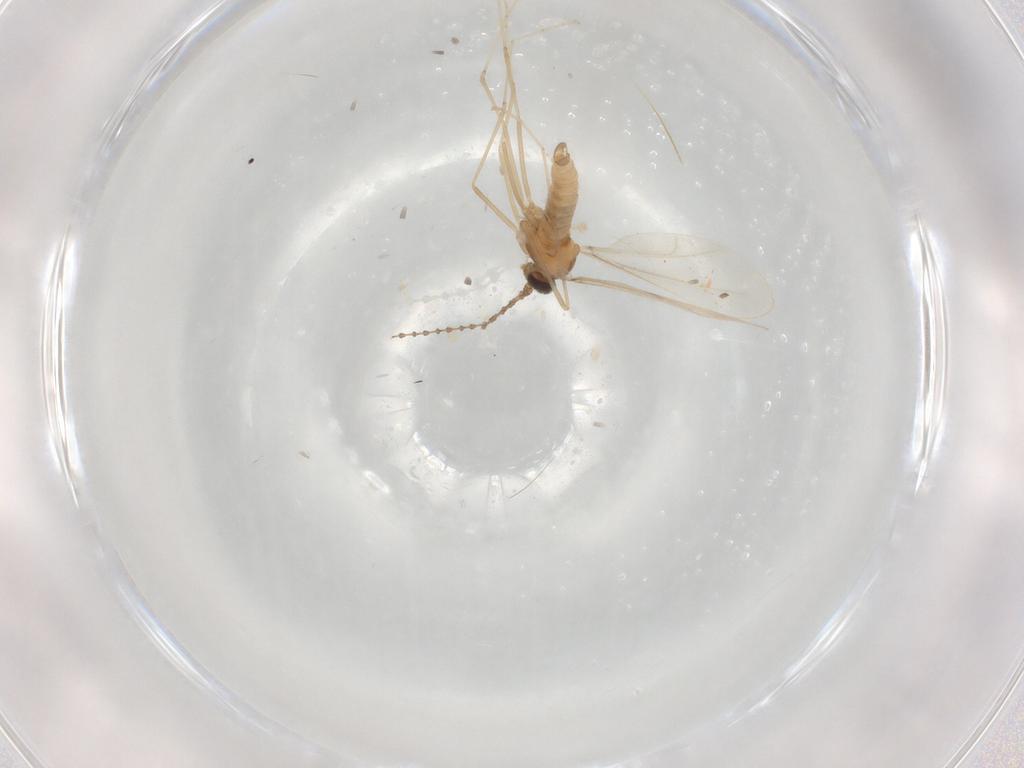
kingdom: Animalia
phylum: Arthropoda
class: Insecta
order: Diptera
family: Cecidomyiidae
